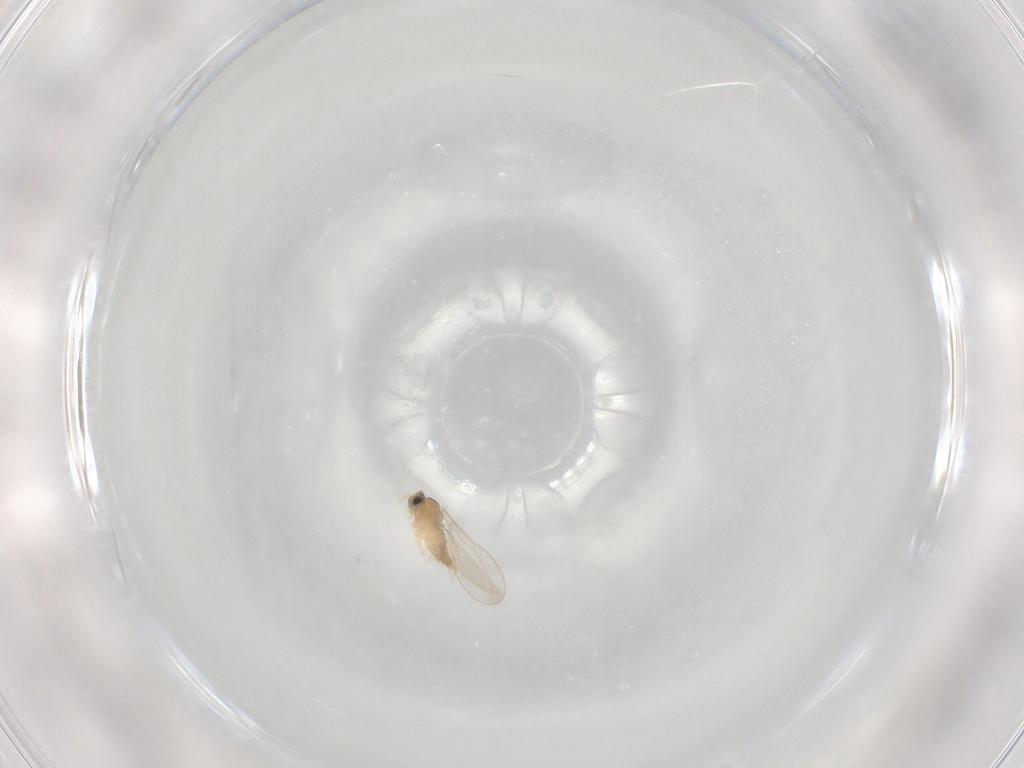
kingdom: Animalia
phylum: Arthropoda
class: Insecta
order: Diptera
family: Cecidomyiidae
